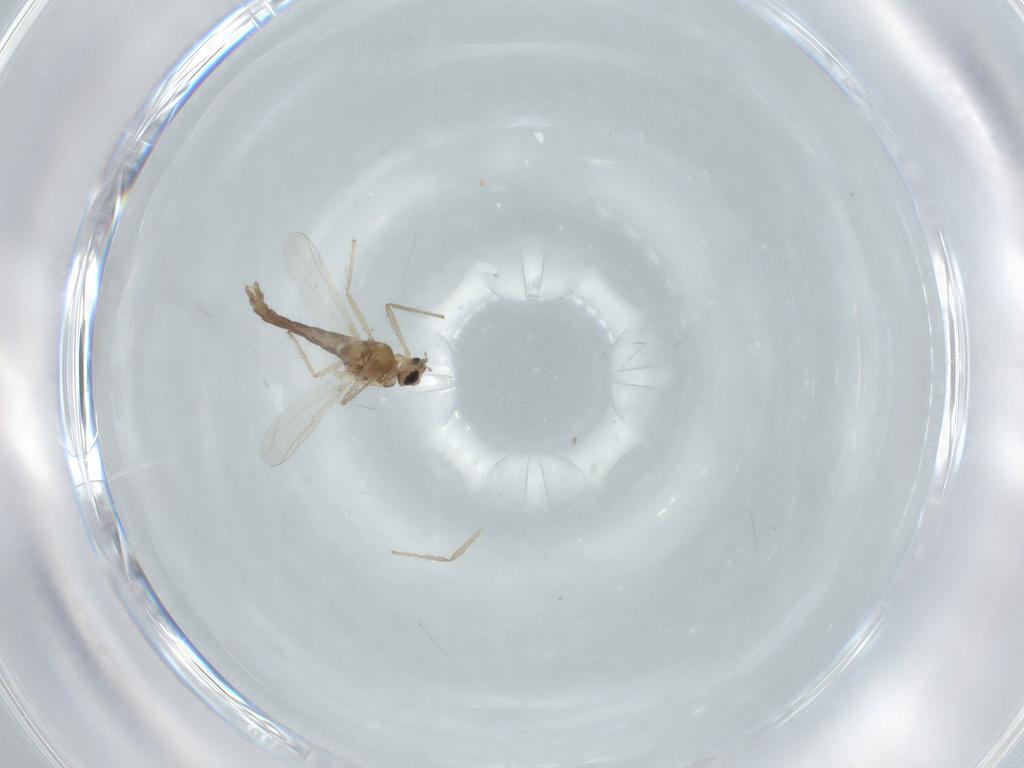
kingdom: Animalia
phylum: Arthropoda
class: Insecta
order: Diptera
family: Chironomidae
